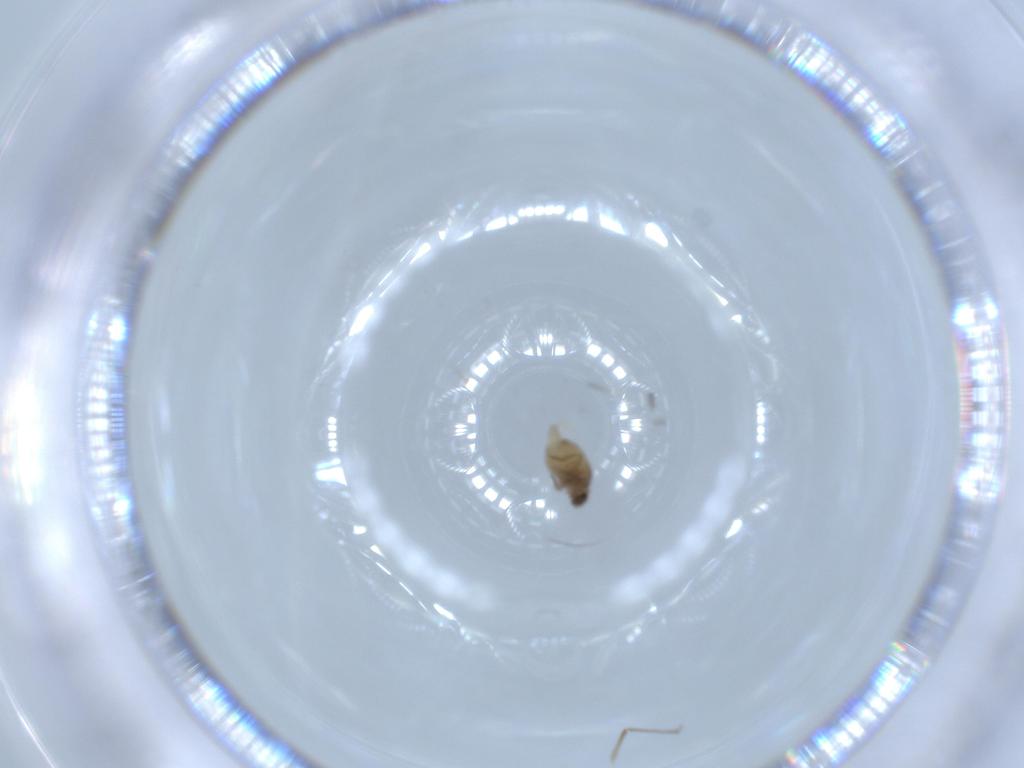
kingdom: Animalia
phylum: Arthropoda
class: Insecta
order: Diptera
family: Phoridae
